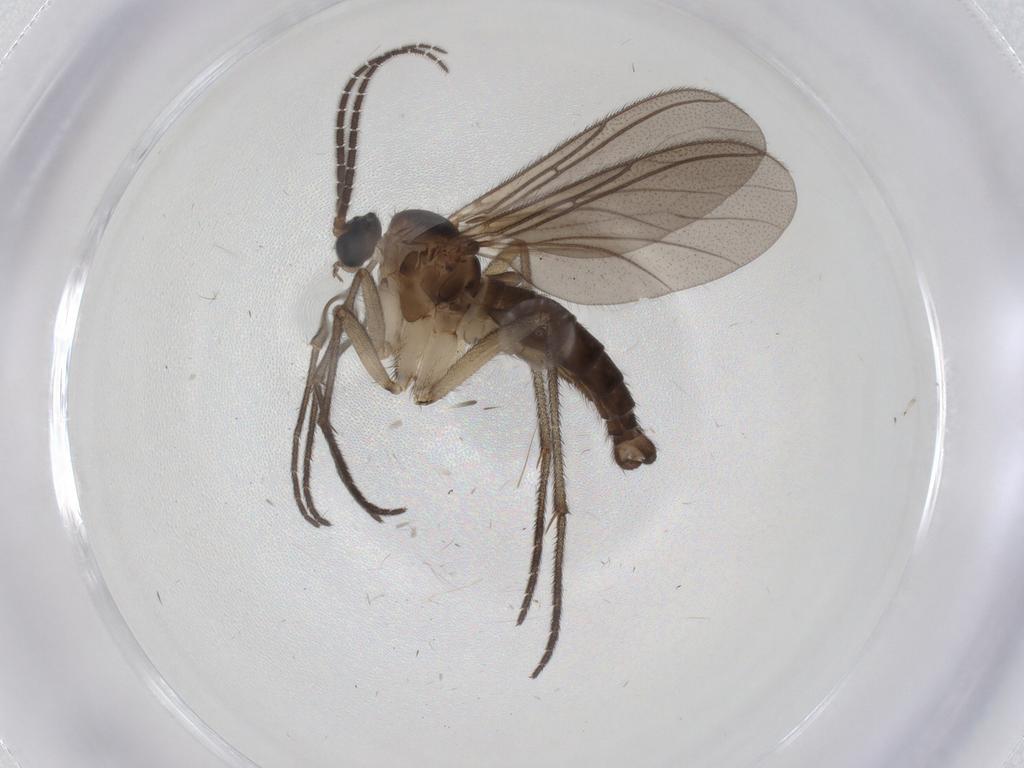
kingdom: Animalia
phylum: Arthropoda
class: Insecta
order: Diptera
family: Sciaridae
